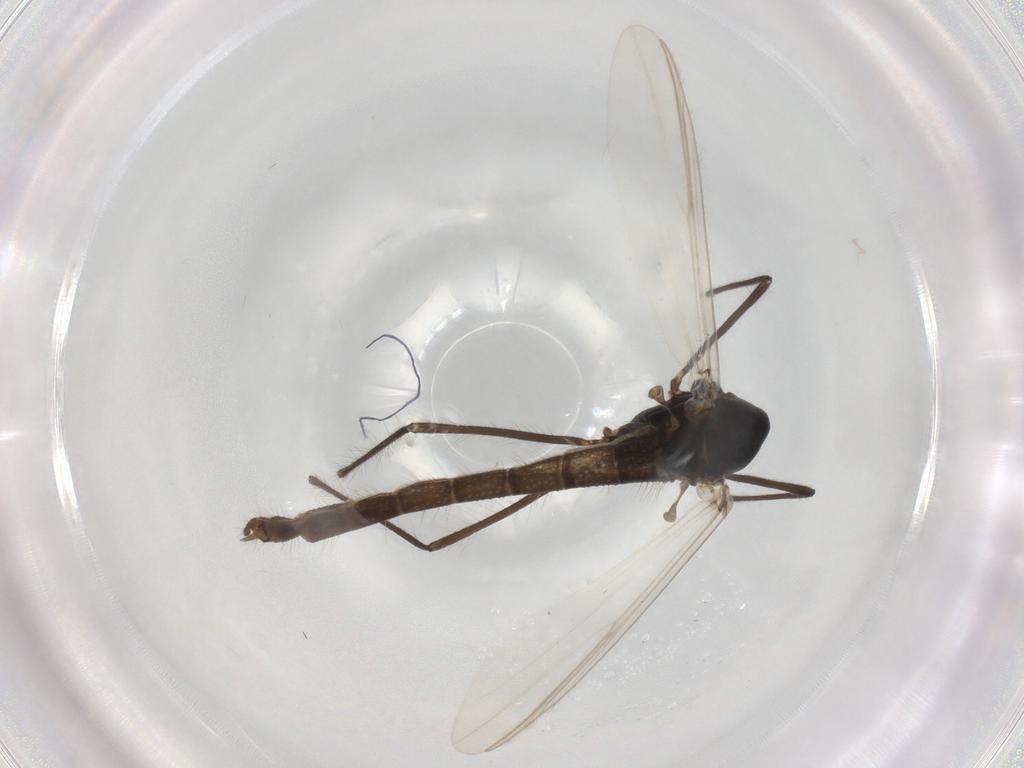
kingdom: Animalia
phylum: Arthropoda
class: Insecta
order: Diptera
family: Chironomidae
